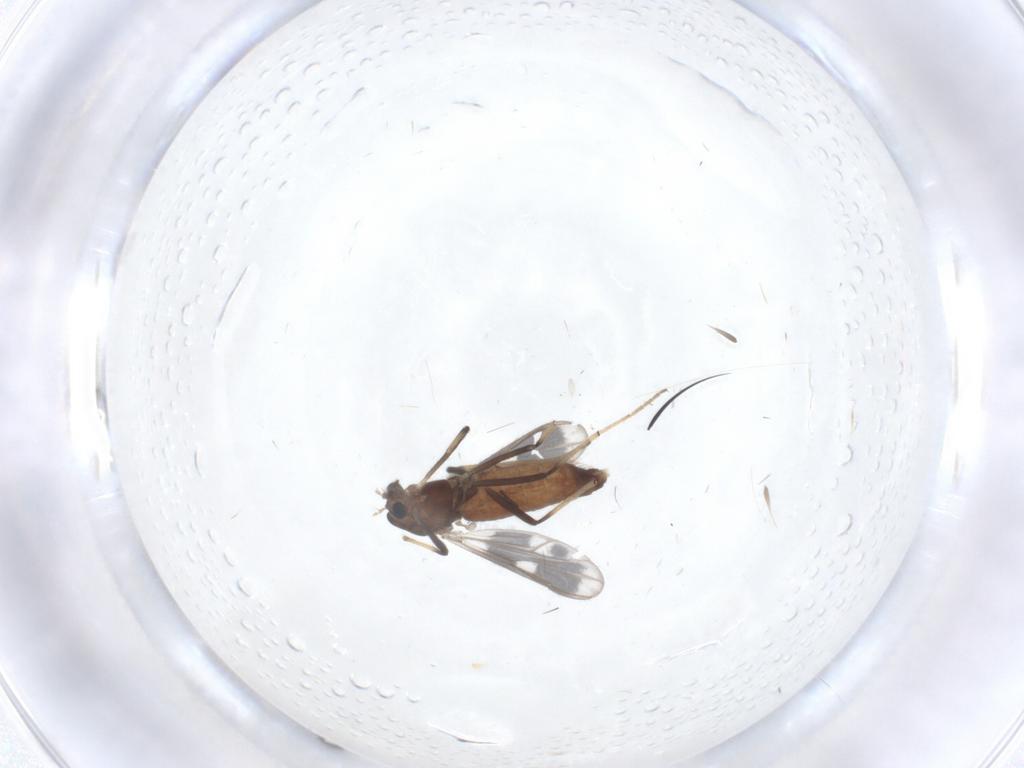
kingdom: Animalia
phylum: Arthropoda
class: Insecta
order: Diptera
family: Chironomidae
